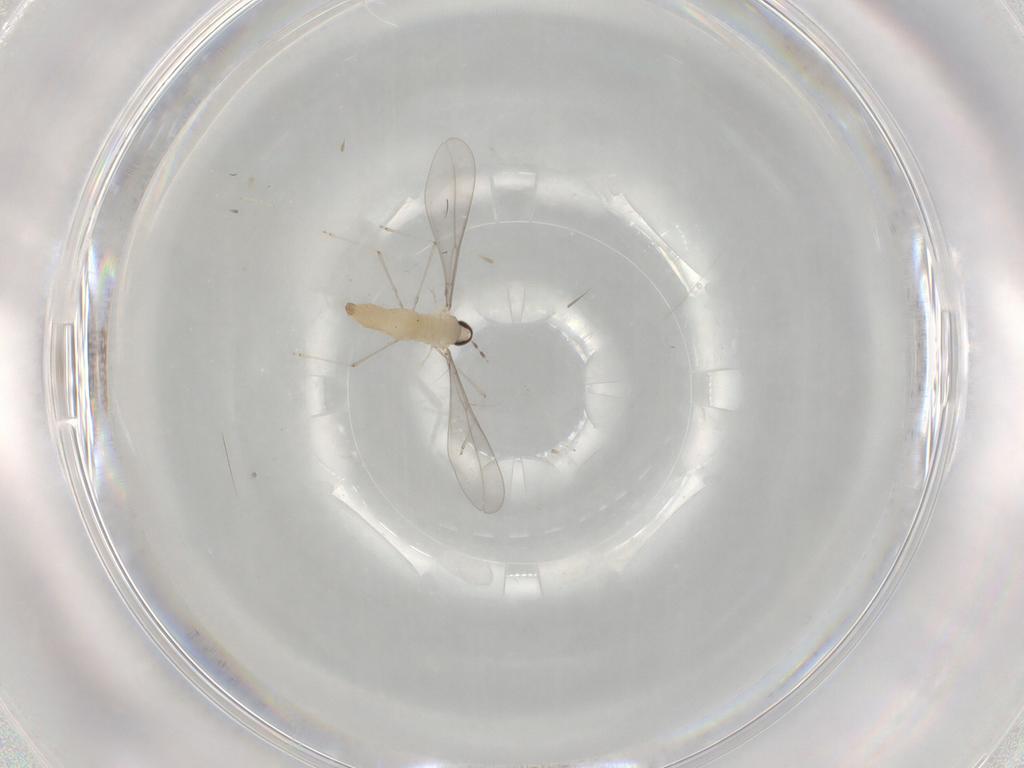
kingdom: Animalia
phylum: Arthropoda
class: Insecta
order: Diptera
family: Cecidomyiidae
